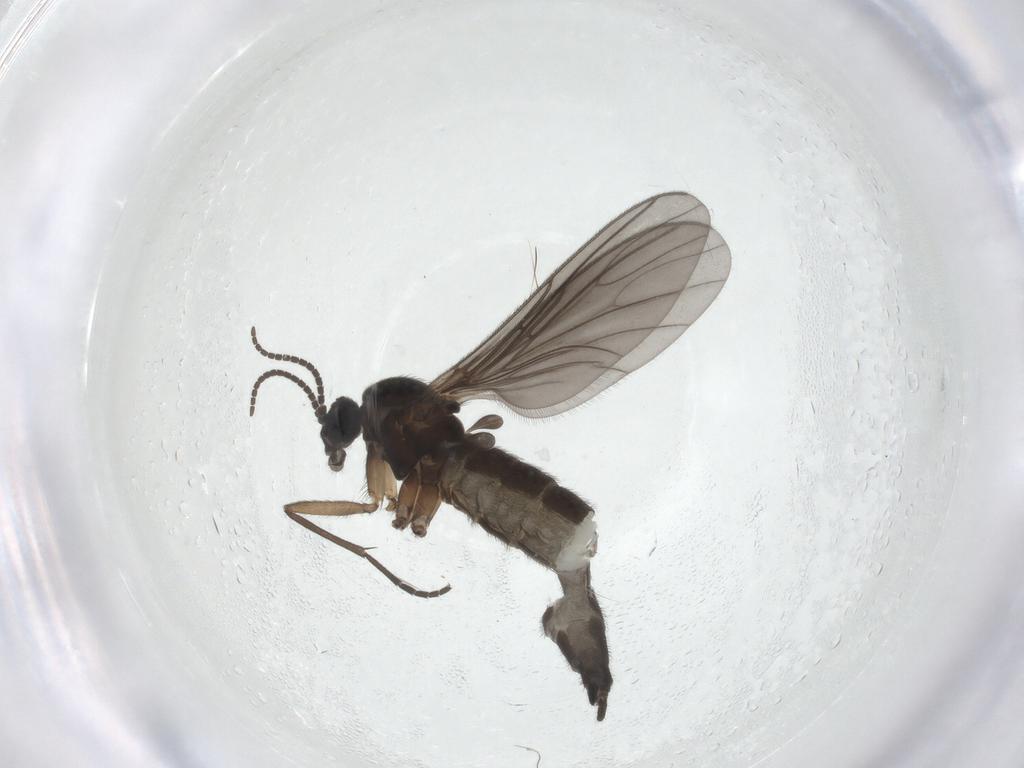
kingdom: Animalia
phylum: Arthropoda
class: Insecta
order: Diptera
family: Sciaridae
